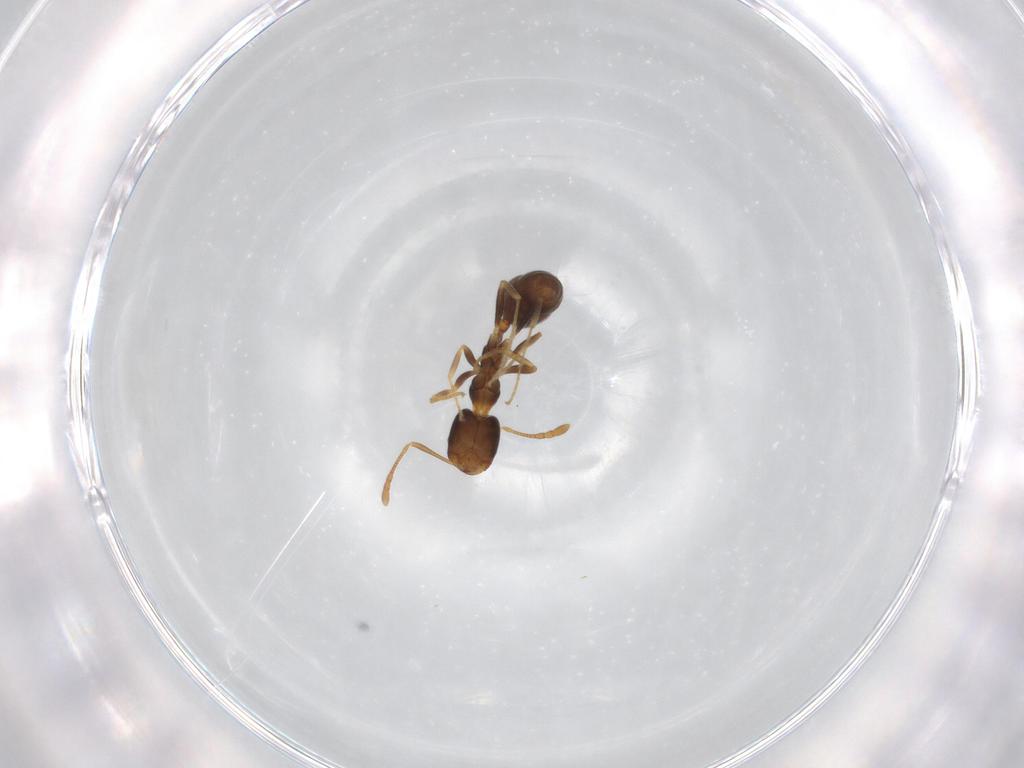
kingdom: Animalia
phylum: Arthropoda
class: Insecta
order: Hymenoptera
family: Formicidae
